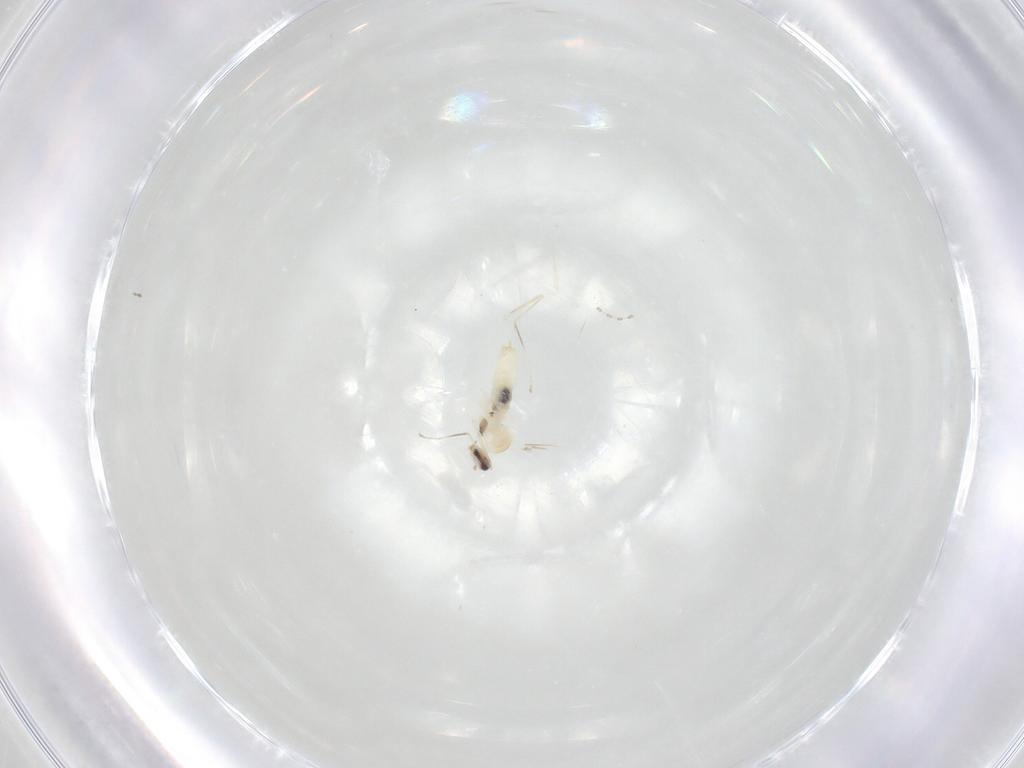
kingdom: Animalia
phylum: Arthropoda
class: Insecta
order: Diptera
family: Cecidomyiidae
